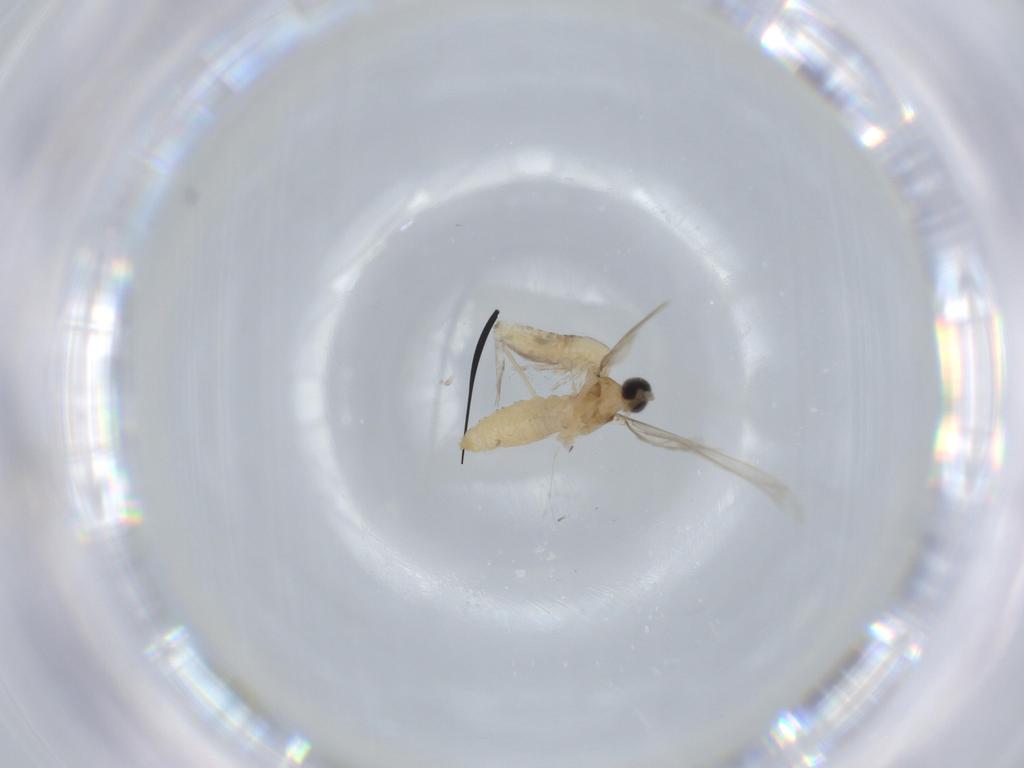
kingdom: Animalia
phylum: Arthropoda
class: Insecta
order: Diptera
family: Cecidomyiidae
